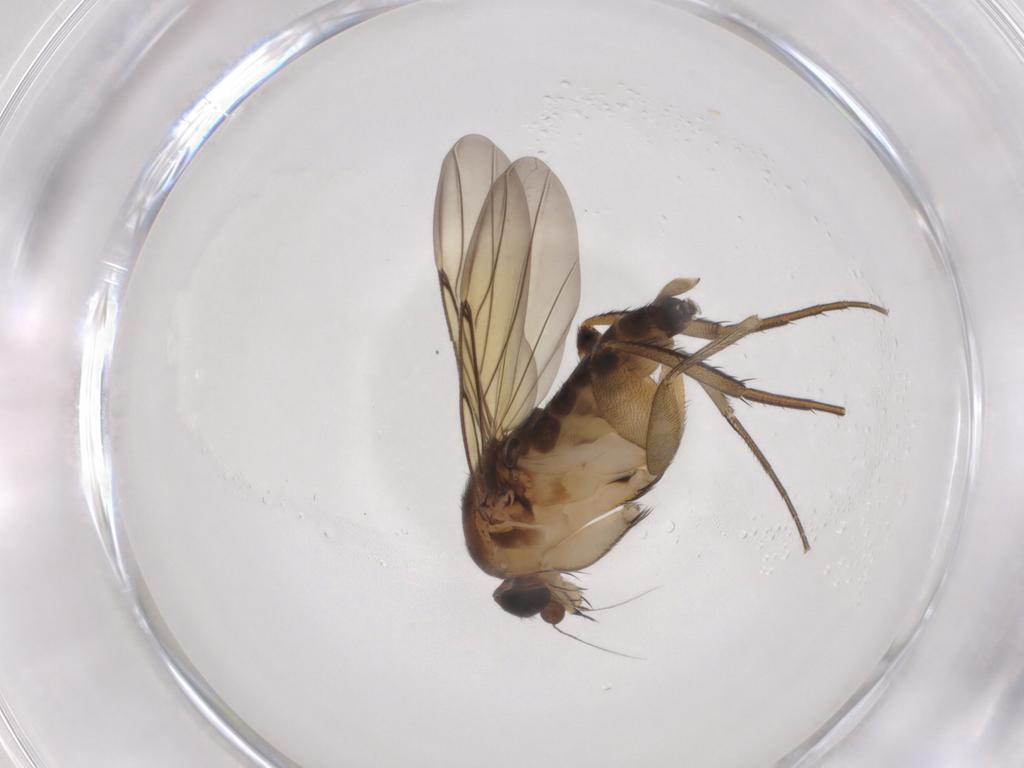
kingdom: Animalia
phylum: Arthropoda
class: Insecta
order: Diptera
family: Phoridae
